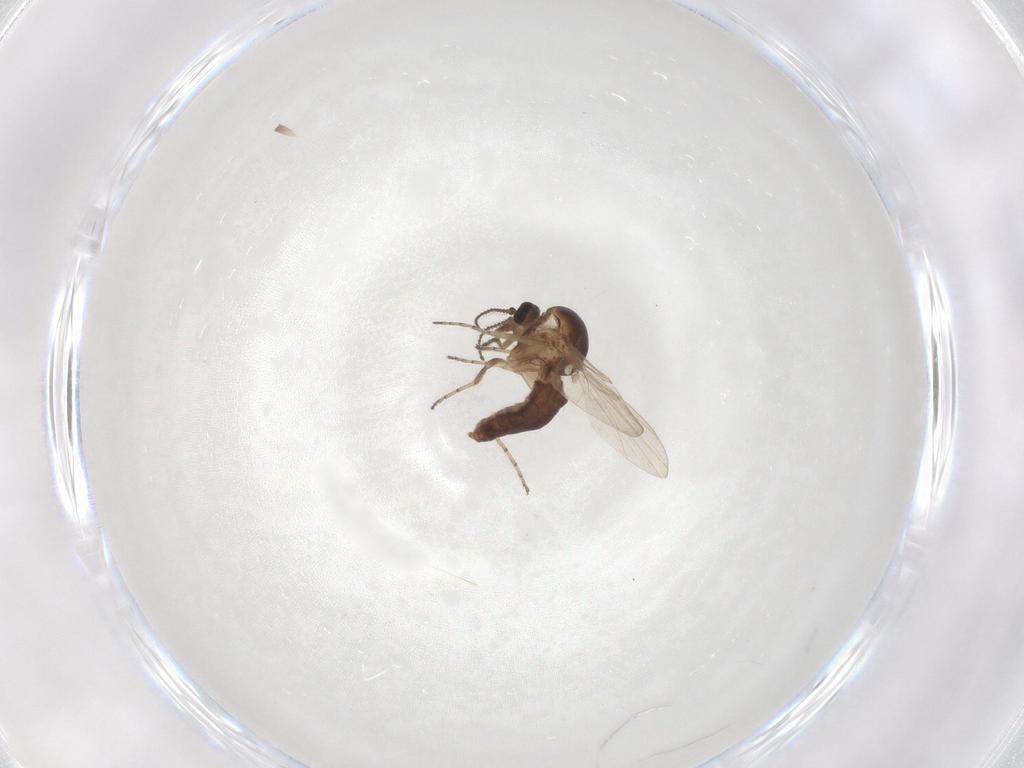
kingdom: Animalia
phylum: Arthropoda
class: Insecta
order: Diptera
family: Ceratopogonidae
